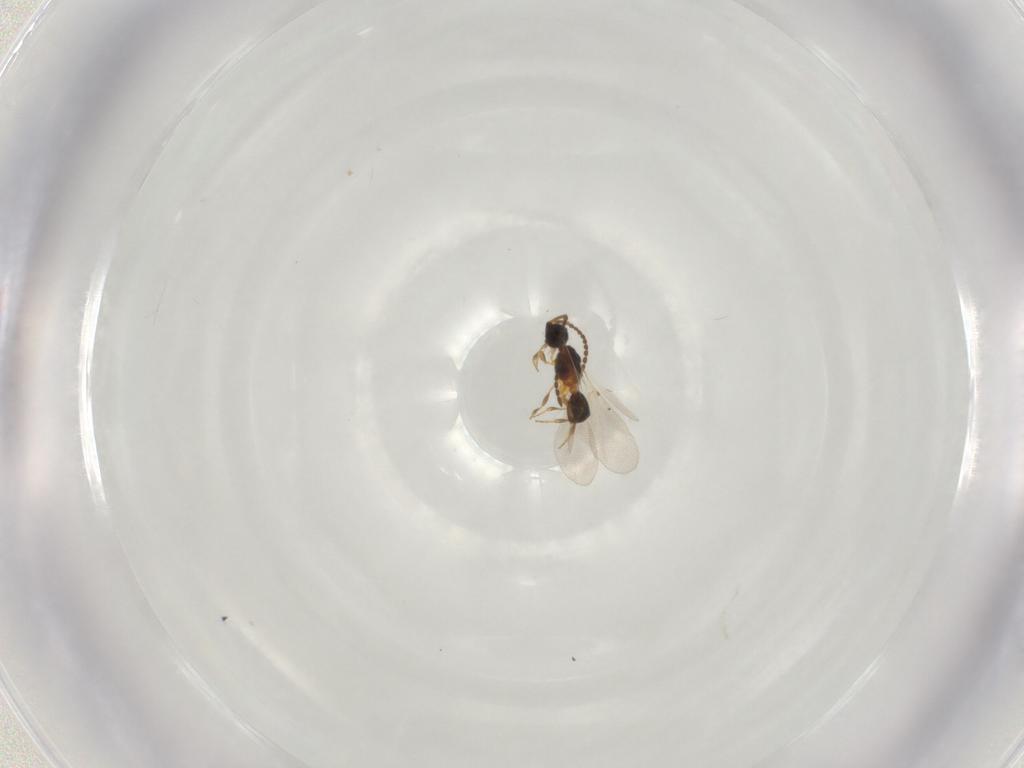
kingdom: Animalia
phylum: Arthropoda
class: Insecta
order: Hymenoptera
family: Diapriidae
